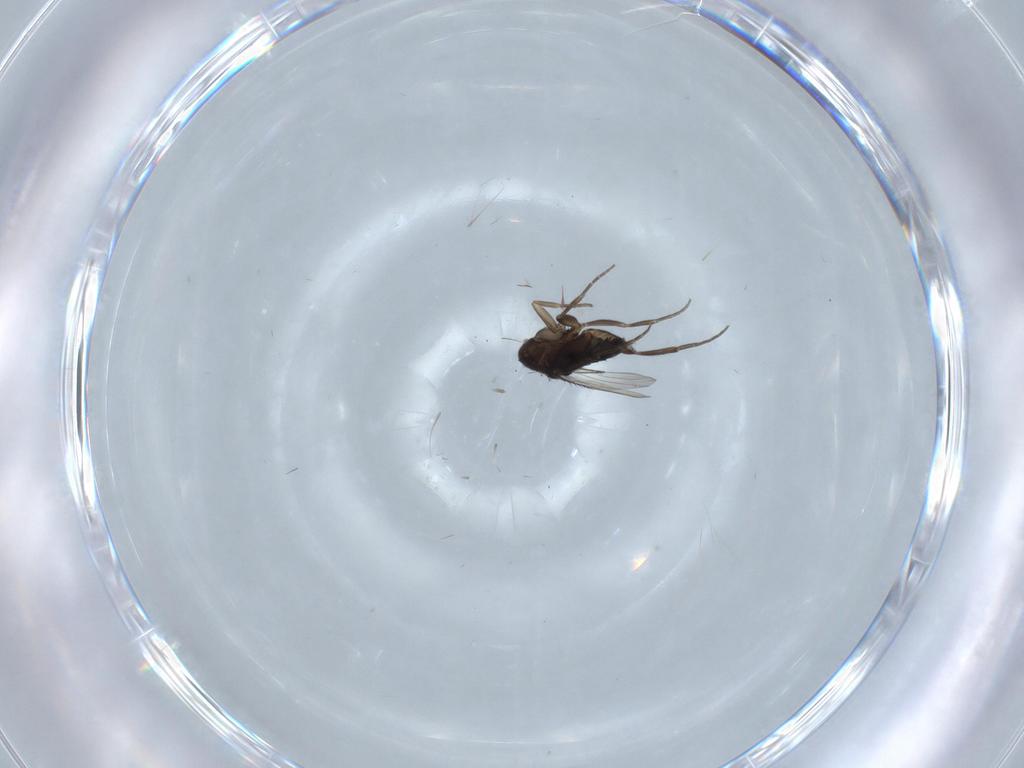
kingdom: Animalia
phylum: Arthropoda
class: Insecta
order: Diptera
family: Phoridae
